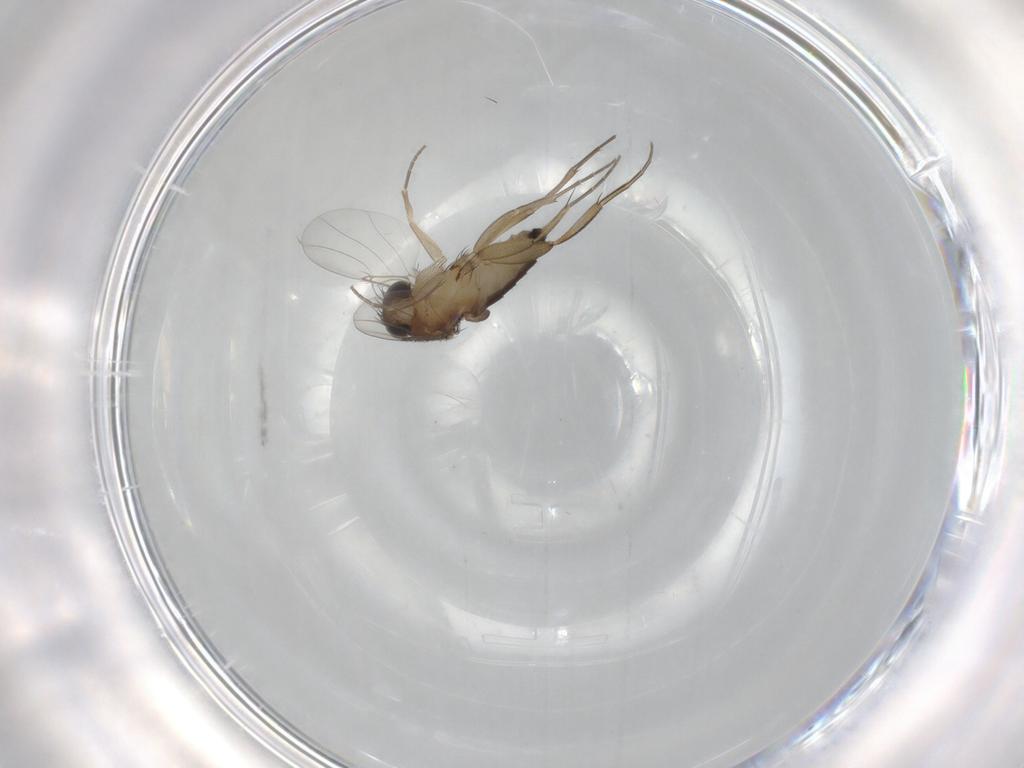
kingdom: Animalia
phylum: Arthropoda
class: Insecta
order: Diptera
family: Phoridae
